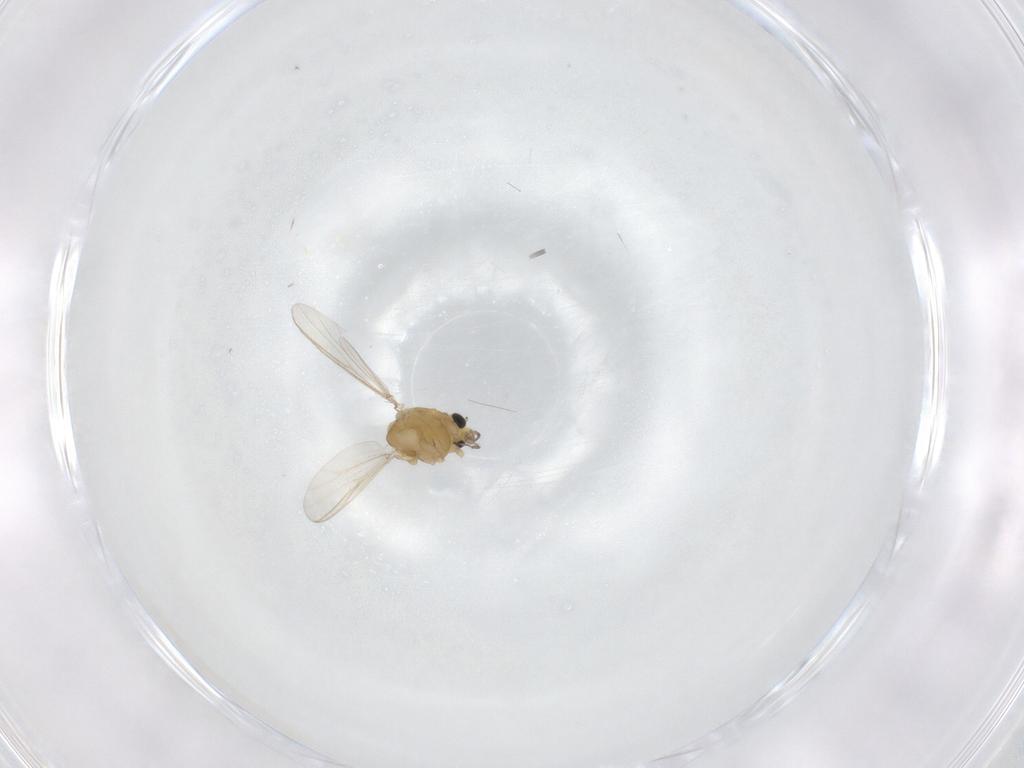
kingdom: Animalia
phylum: Arthropoda
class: Insecta
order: Diptera
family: Chironomidae
